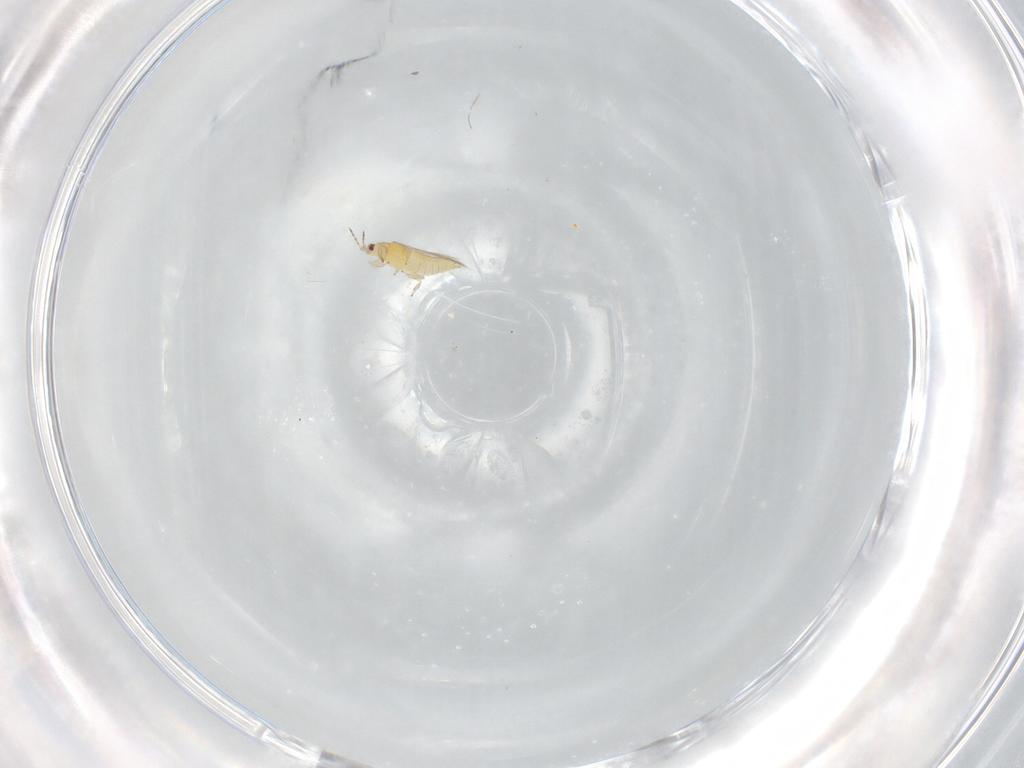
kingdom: Animalia
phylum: Arthropoda
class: Insecta
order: Thysanoptera
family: Thripidae
